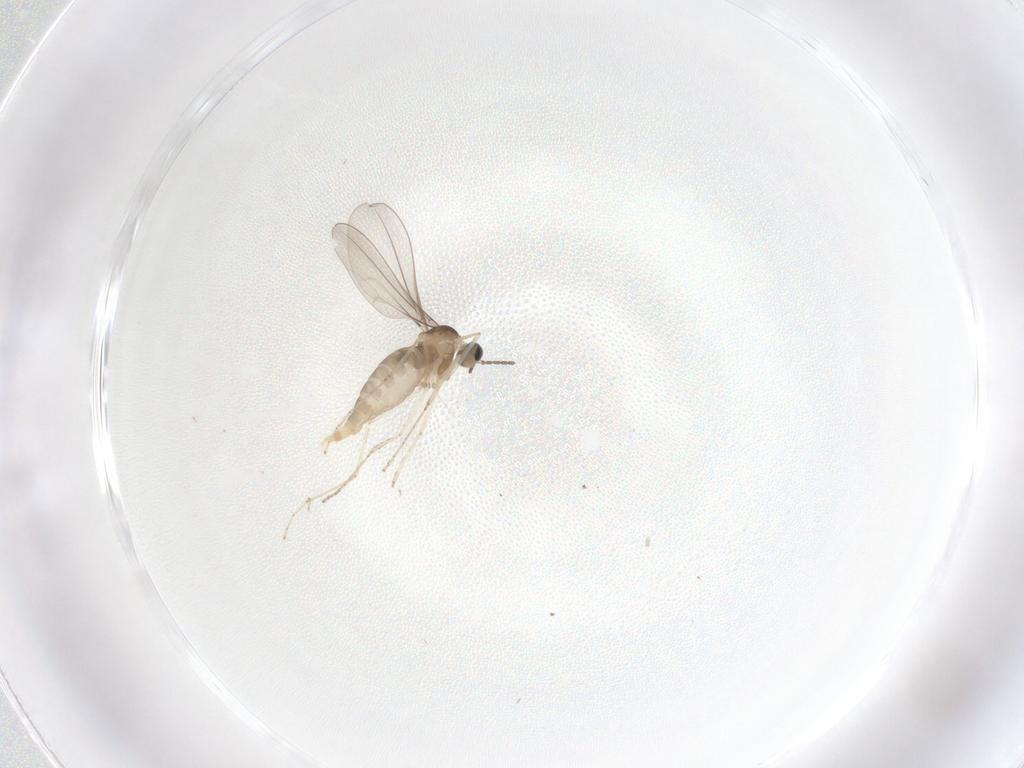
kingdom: Animalia
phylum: Arthropoda
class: Insecta
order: Diptera
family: Cecidomyiidae
